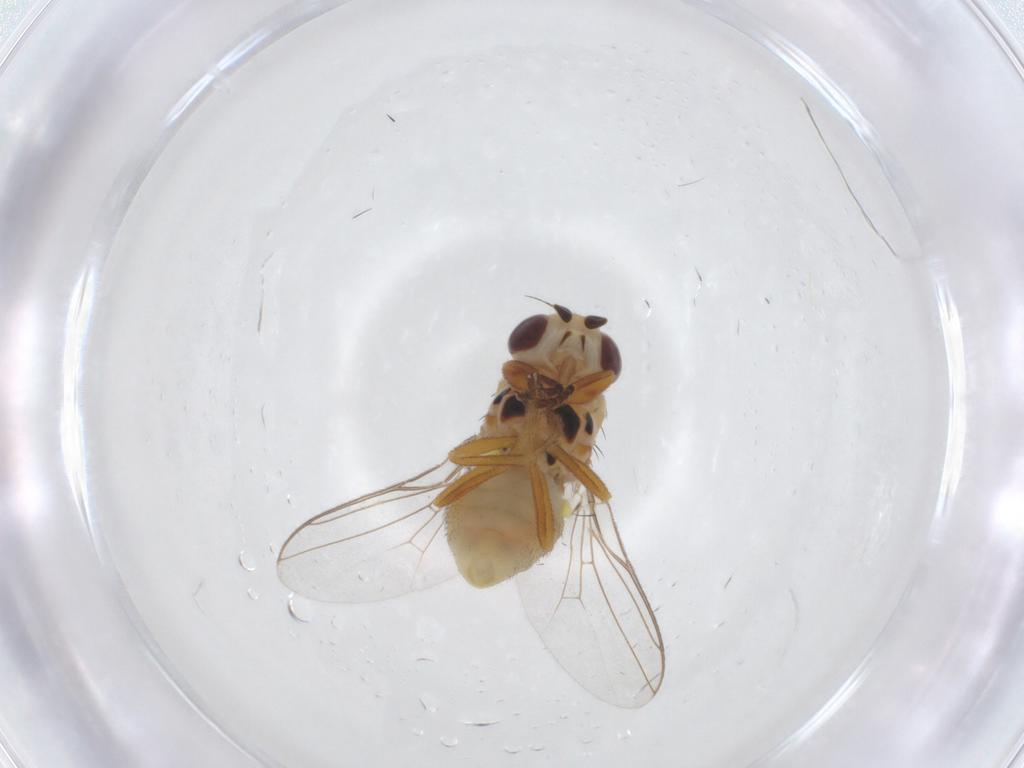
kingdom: Animalia
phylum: Arthropoda
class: Insecta
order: Diptera
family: Chloropidae
